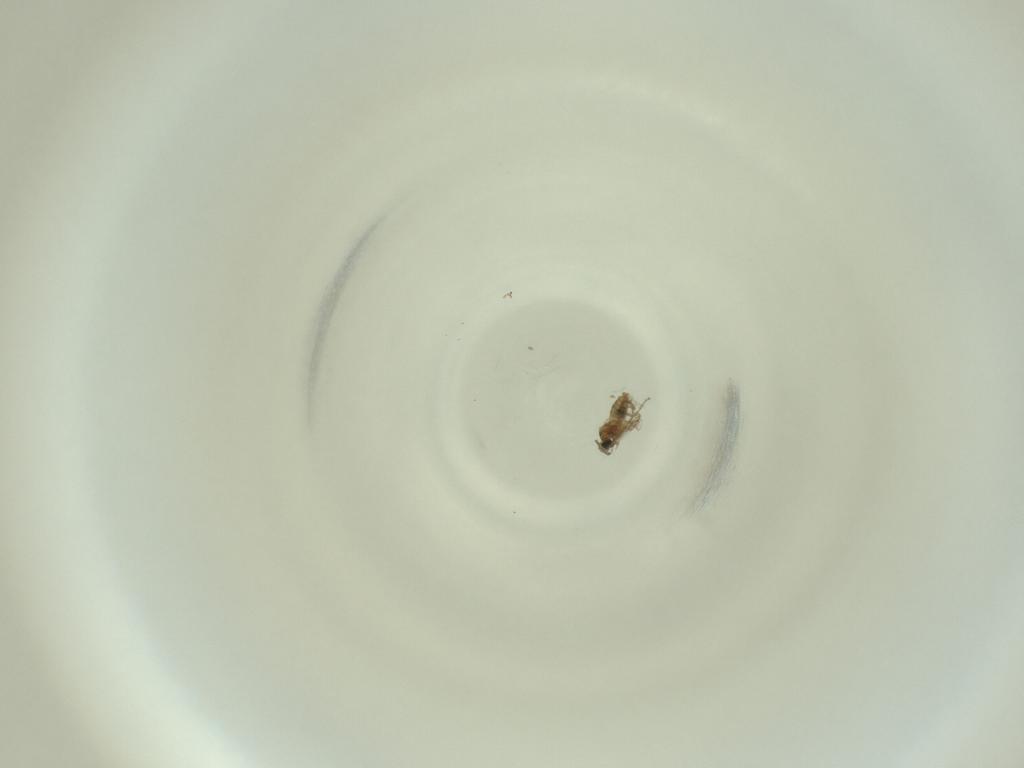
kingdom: Animalia
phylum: Arthropoda
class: Insecta
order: Diptera
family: Cecidomyiidae
